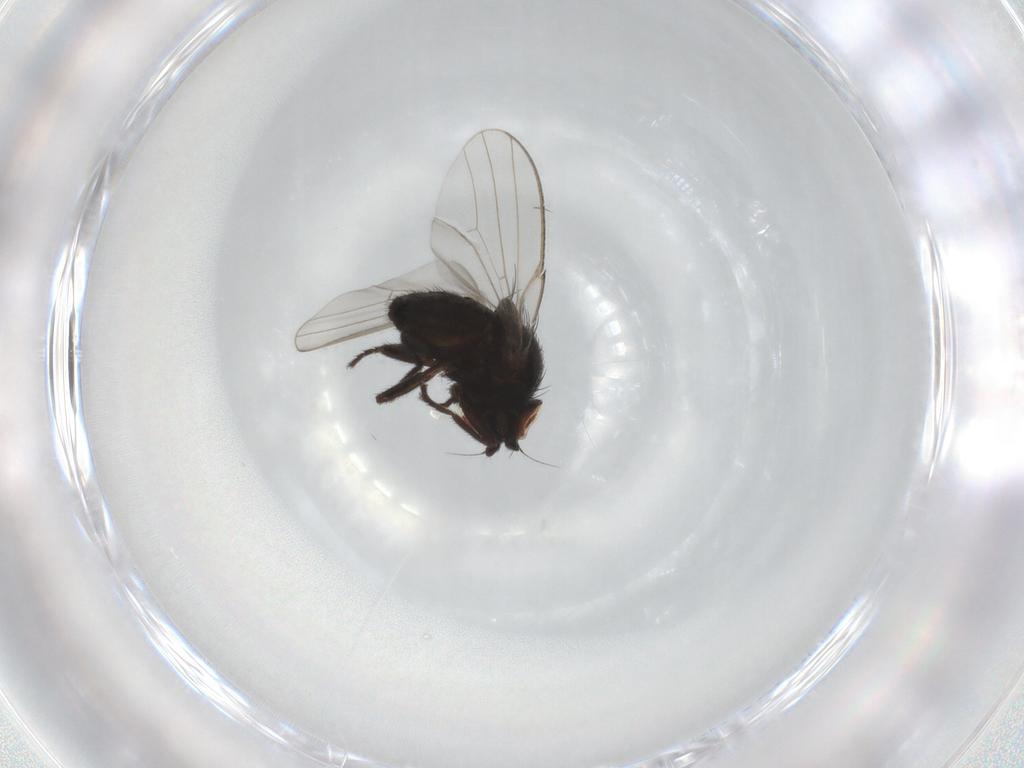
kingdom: Animalia
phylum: Arthropoda
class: Insecta
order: Diptera
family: Chloropidae
